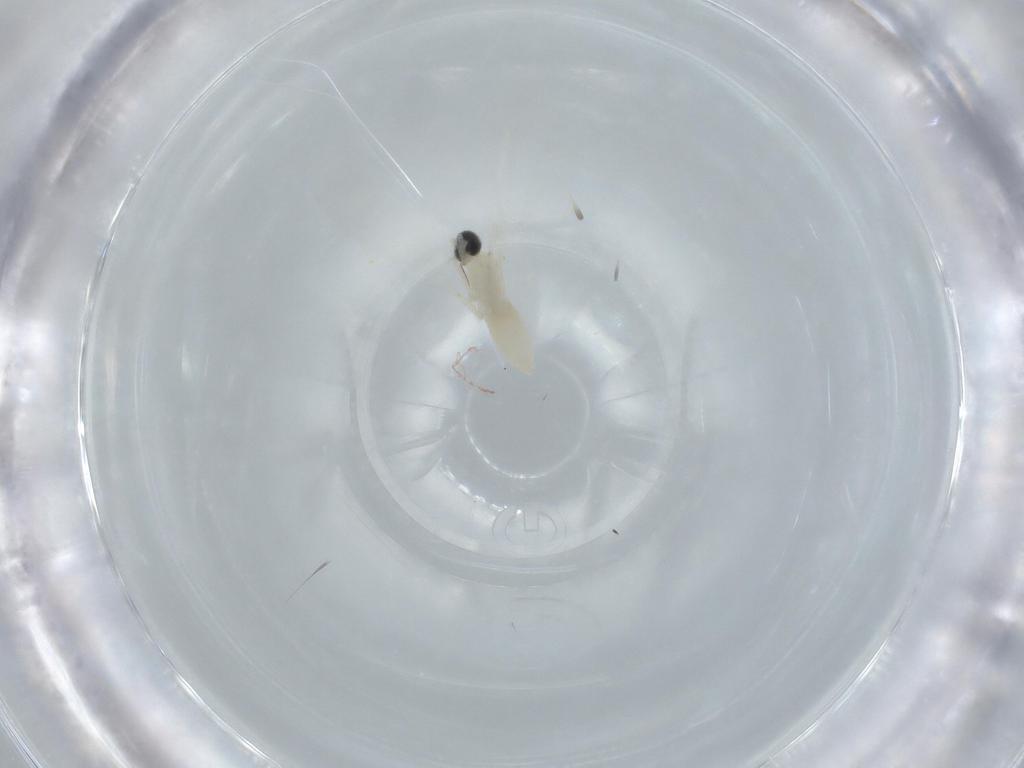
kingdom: Animalia
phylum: Arthropoda
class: Insecta
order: Diptera
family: Cecidomyiidae
